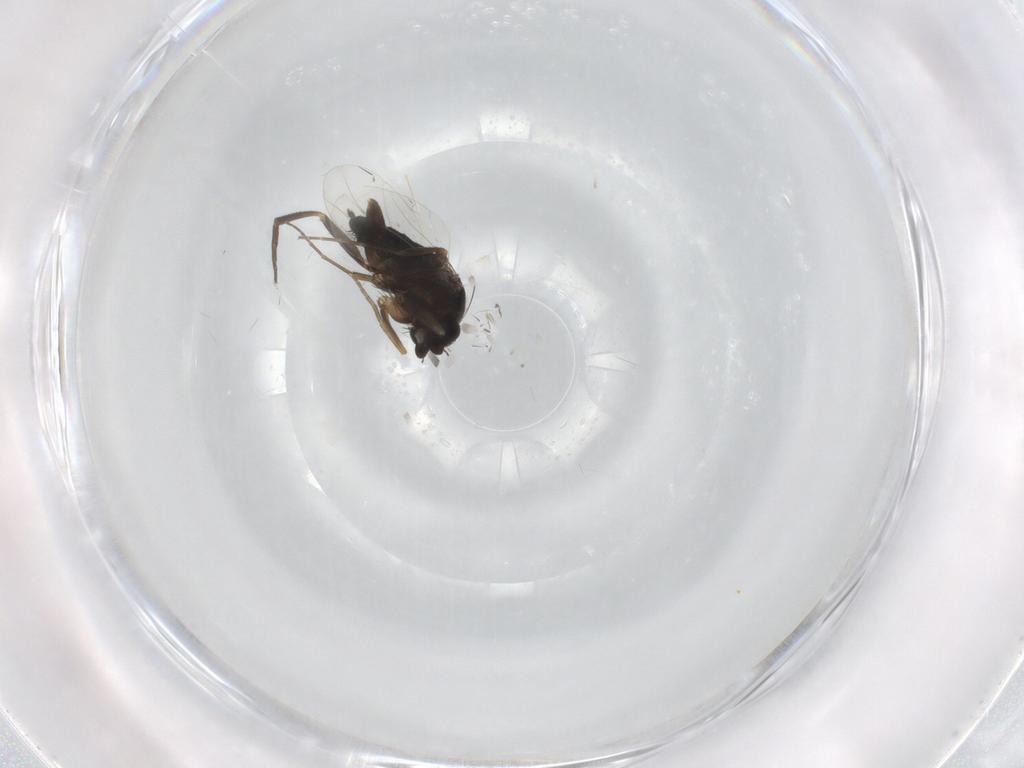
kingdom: Animalia
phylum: Arthropoda
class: Insecta
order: Diptera
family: Phoridae
